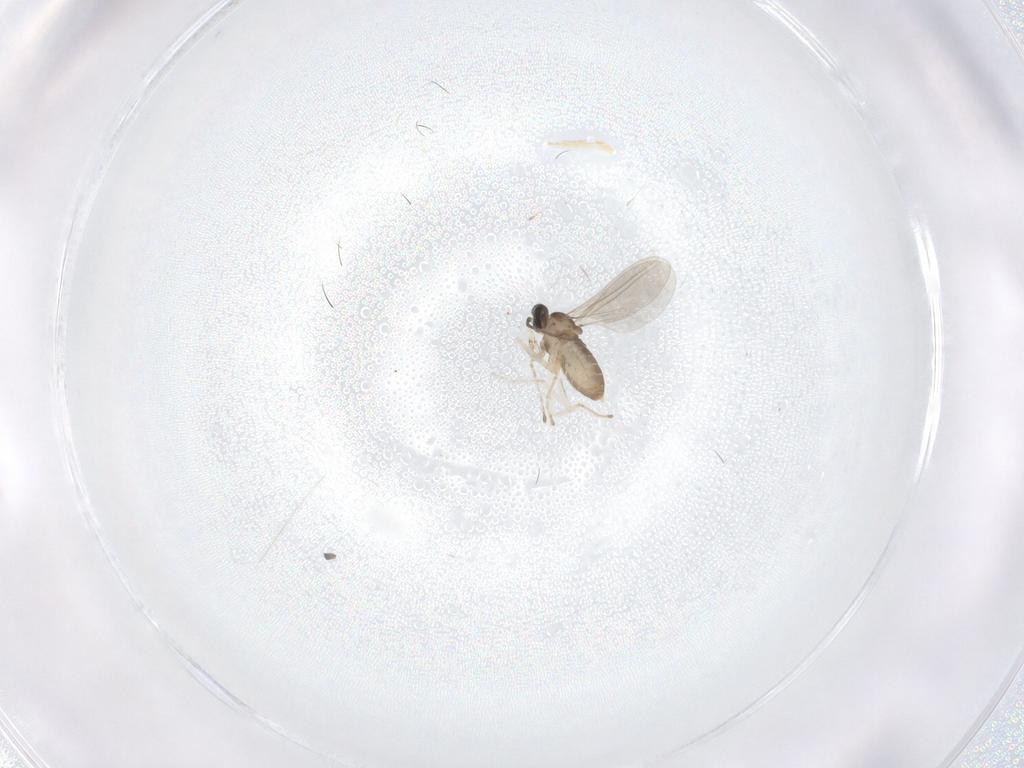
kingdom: Animalia
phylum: Arthropoda
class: Insecta
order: Diptera
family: Cecidomyiidae
